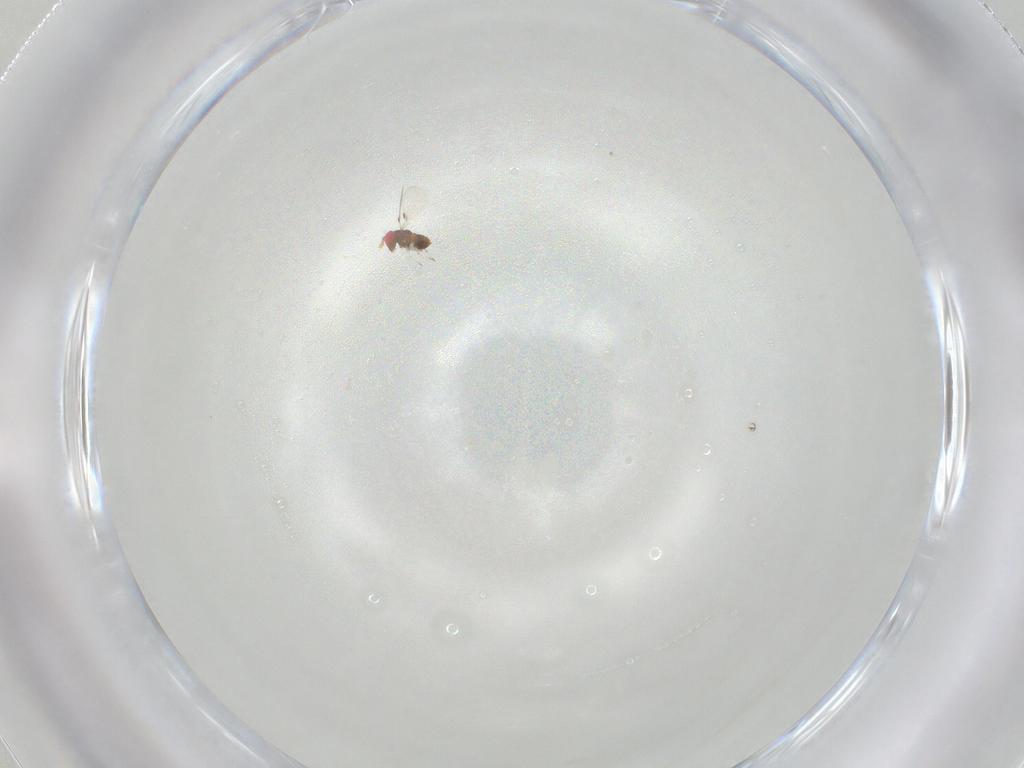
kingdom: Animalia
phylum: Arthropoda
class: Insecta
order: Hymenoptera
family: Trichogrammatidae
